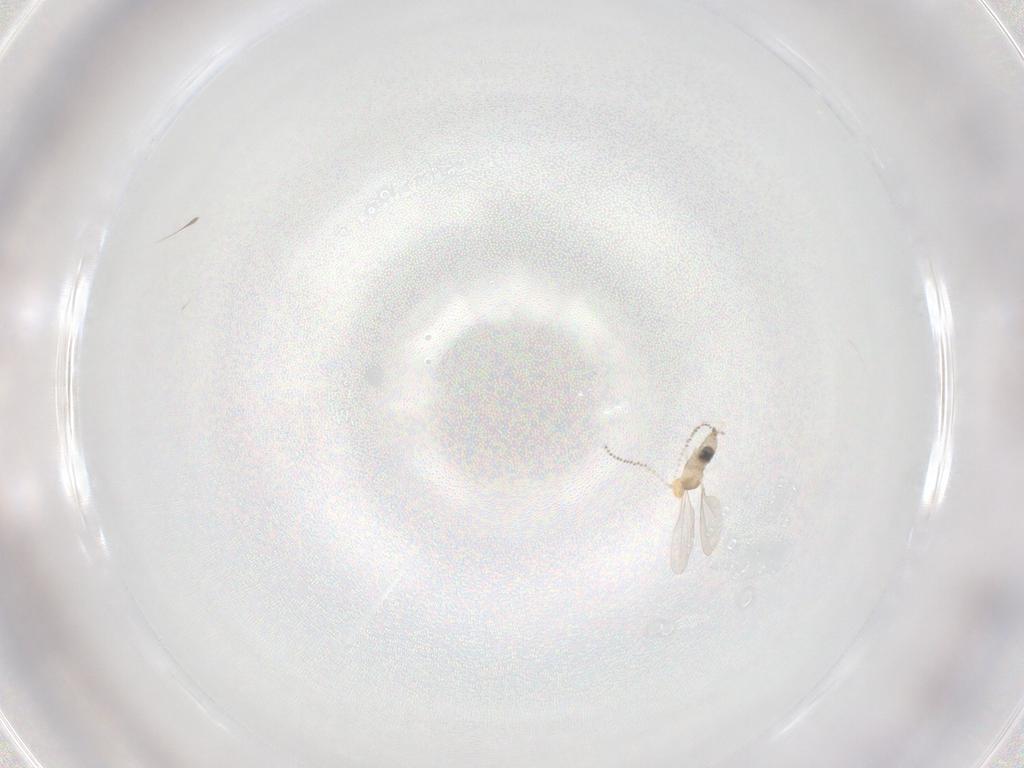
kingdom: Animalia
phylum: Arthropoda
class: Insecta
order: Diptera
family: Cecidomyiidae
